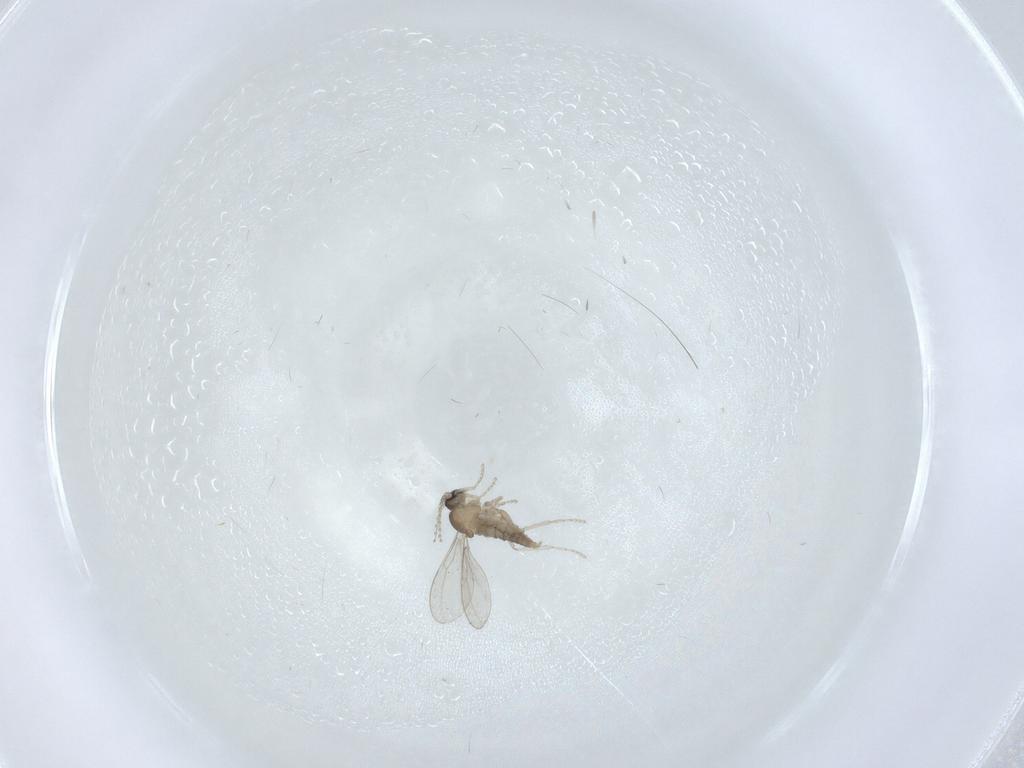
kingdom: Animalia
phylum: Arthropoda
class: Insecta
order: Diptera
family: Cecidomyiidae
